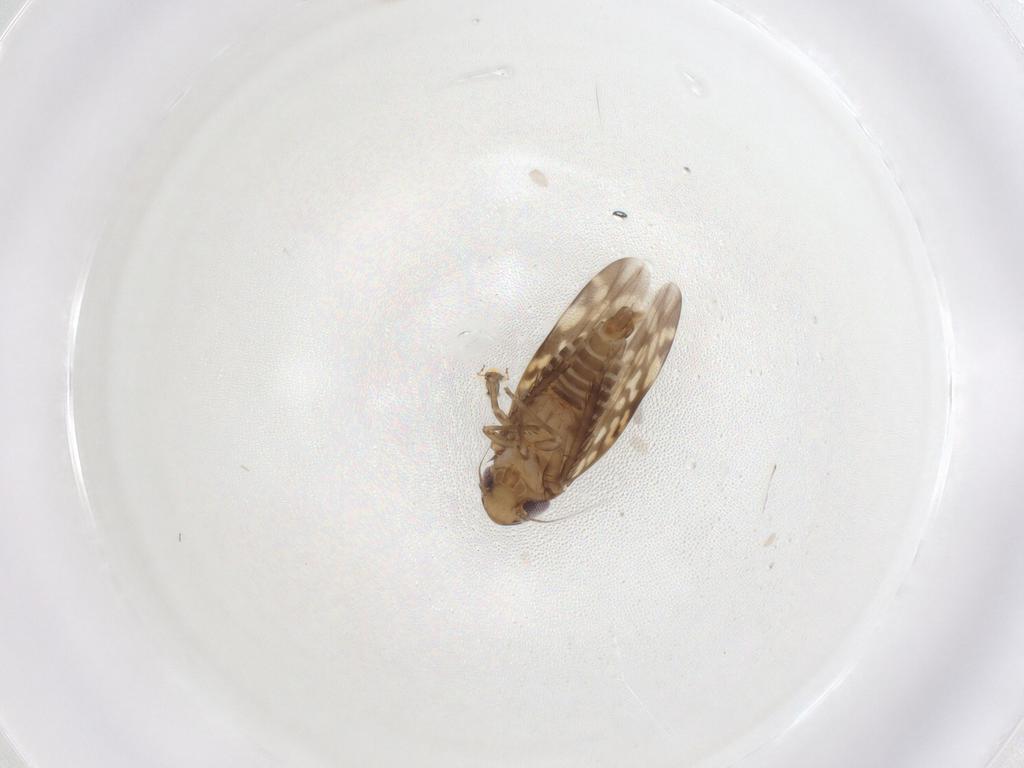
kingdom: Animalia
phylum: Arthropoda
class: Insecta
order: Hemiptera
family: Cicadellidae
